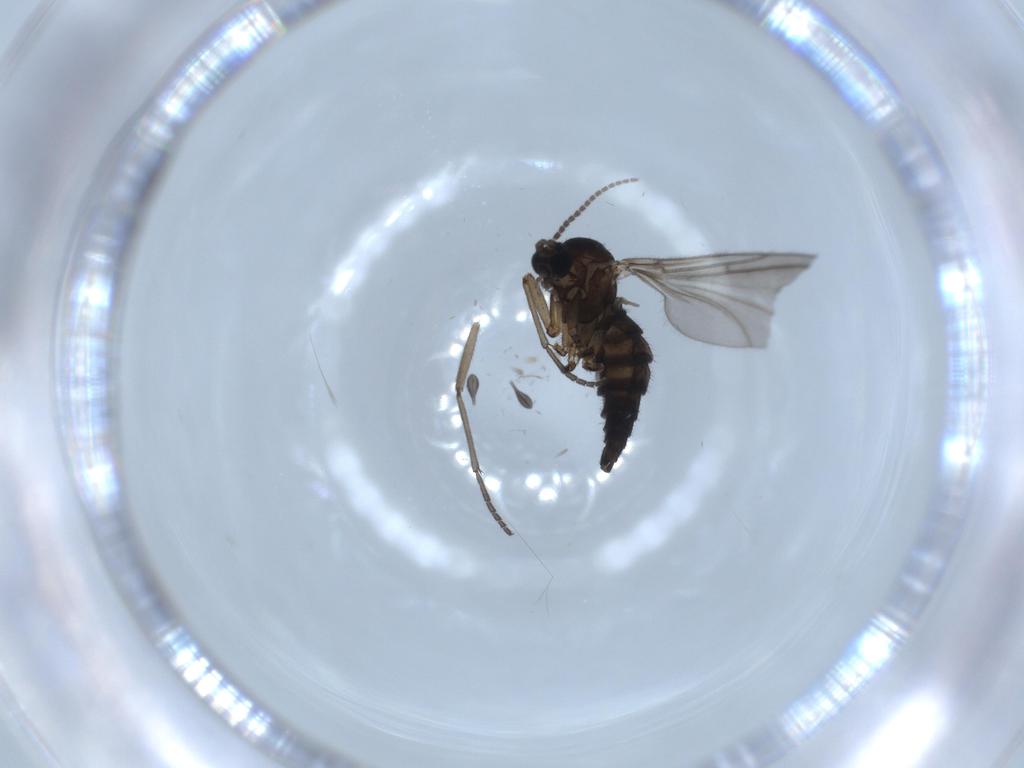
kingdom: Animalia
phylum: Arthropoda
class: Insecta
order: Diptera
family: Sciaridae
